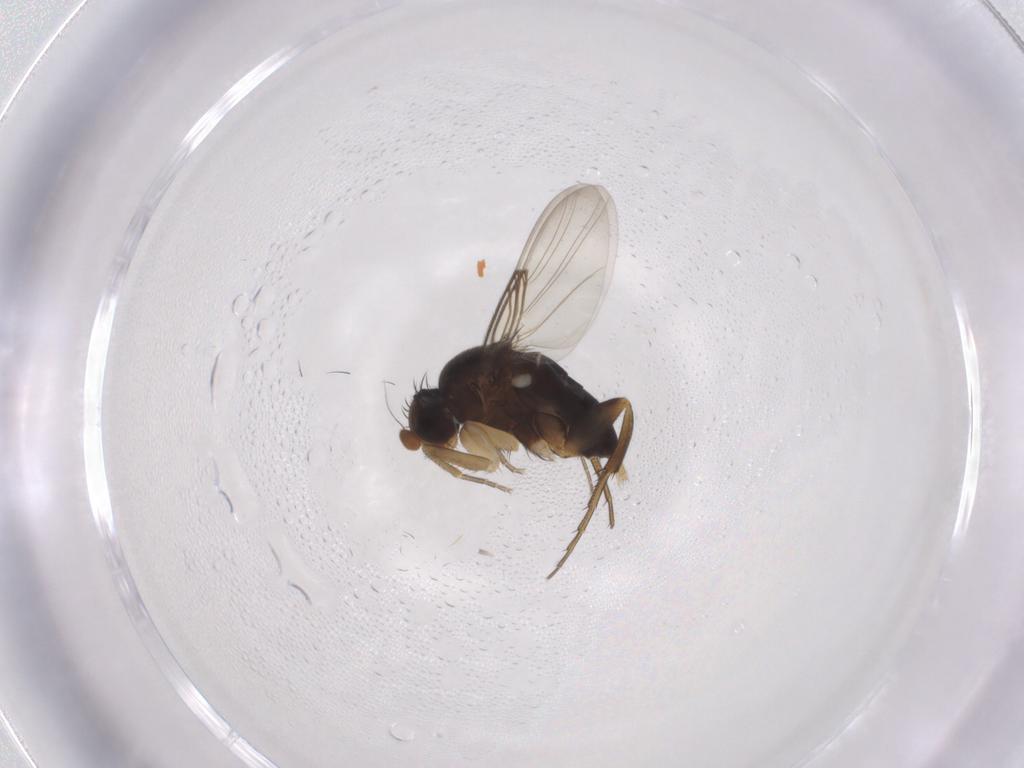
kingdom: Animalia
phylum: Arthropoda
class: Insecta
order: Diptera
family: Phoridae
